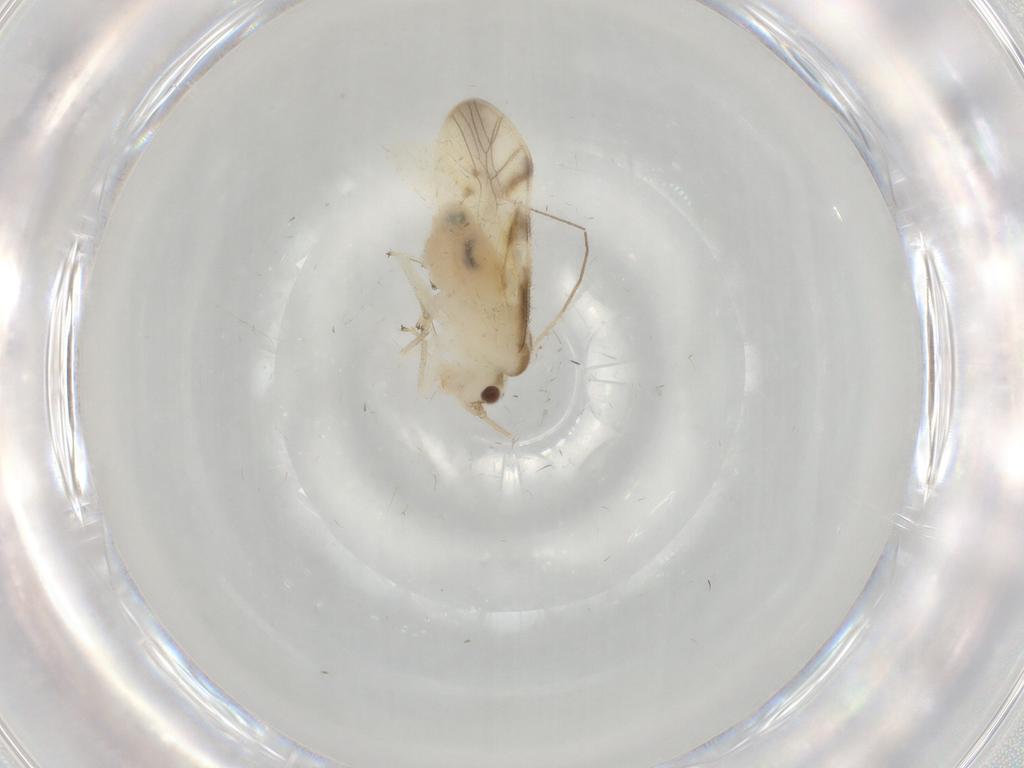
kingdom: Animalia
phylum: Arthropoda
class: Insecta
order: Psocodea
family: Caeciliusidae
